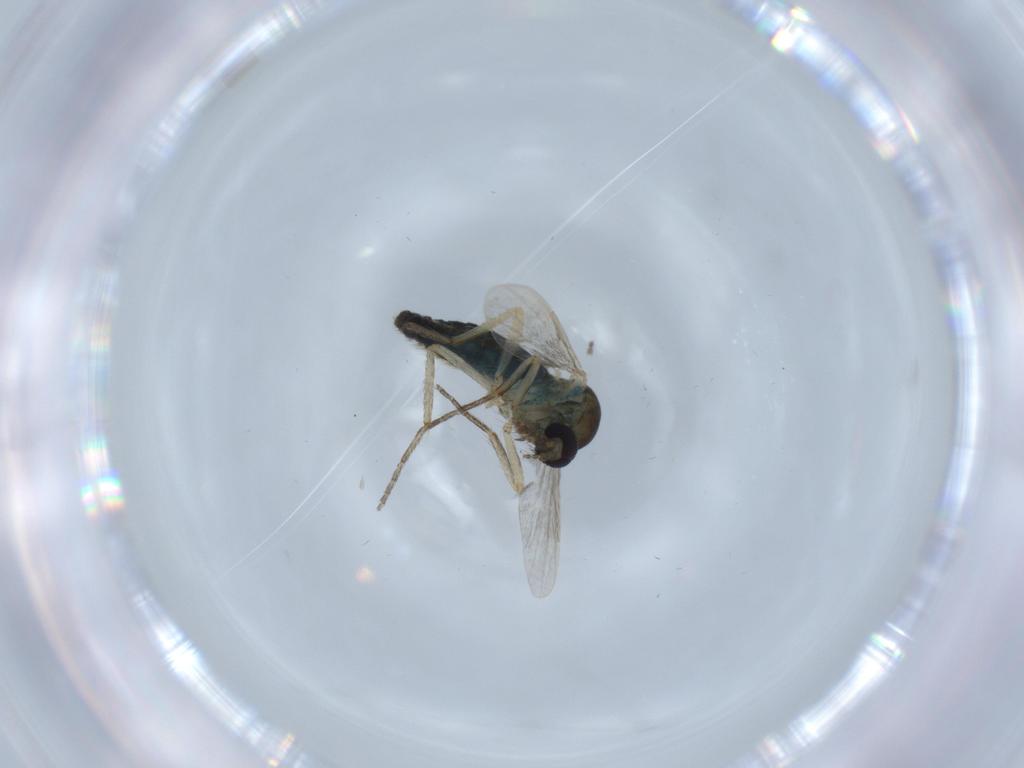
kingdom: Animalia
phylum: Arthropoda
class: Insecta
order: Diptera
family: Ceratopogonidae
